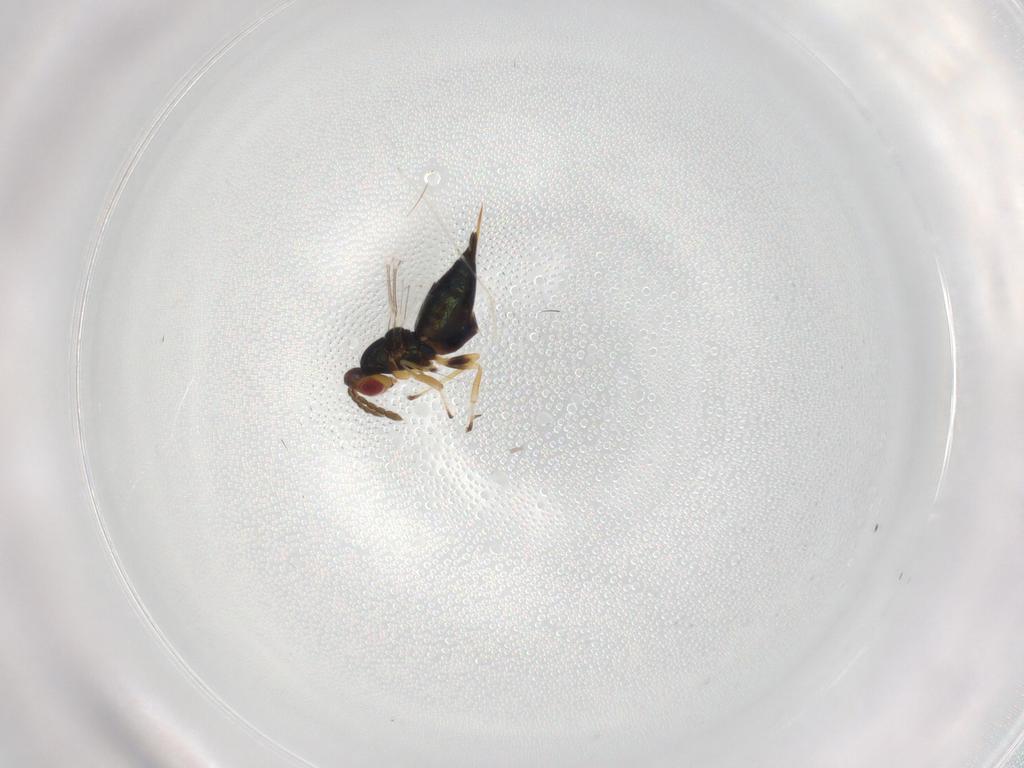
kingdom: Animalia
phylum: Arthropoda
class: Insecta
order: Hymenoptera
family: Eulophidae
